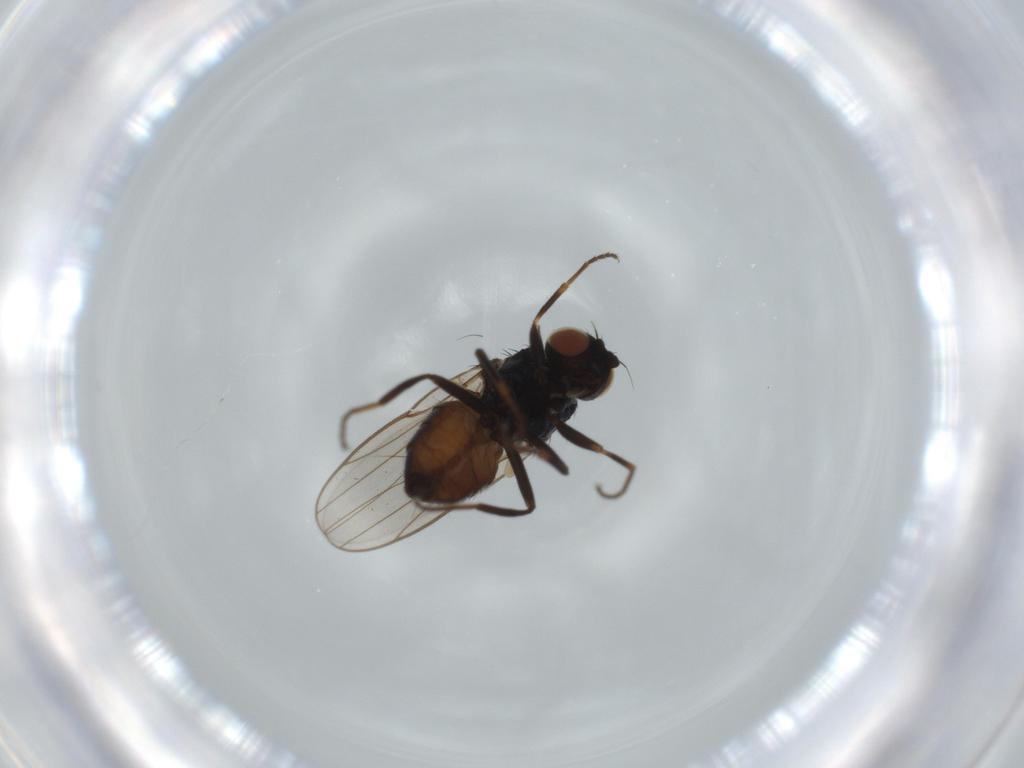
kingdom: Animalia
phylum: Arthropoda
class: Insecta
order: Diptera
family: Chloropidae
